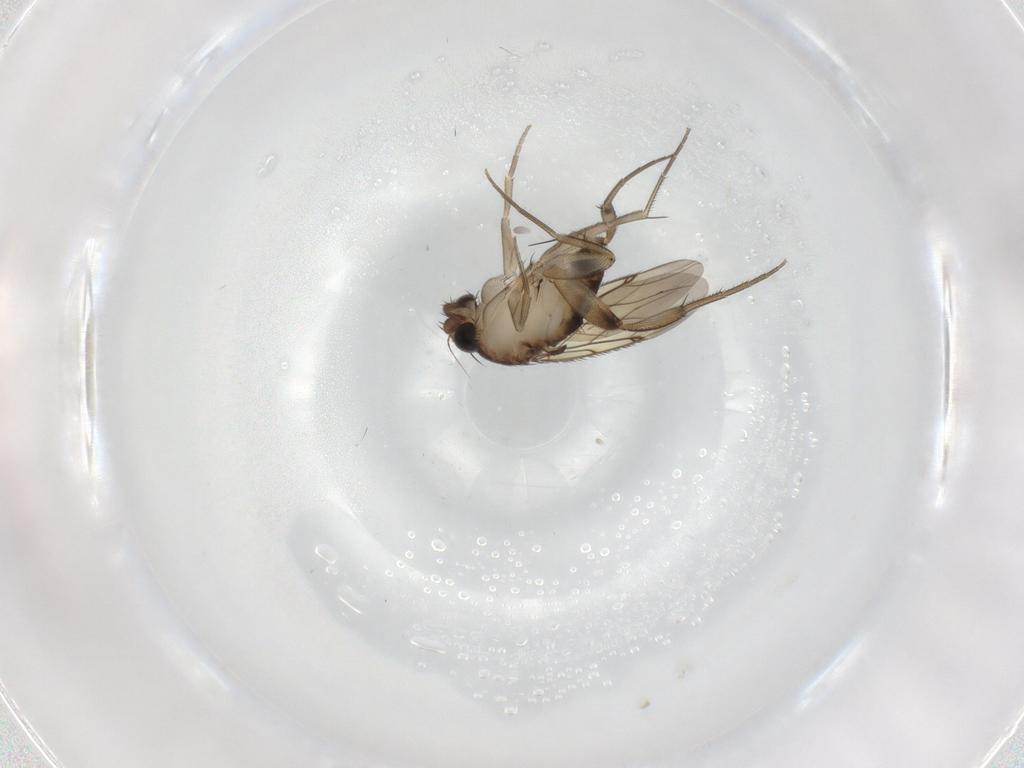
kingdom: Animalia
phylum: Arthropoda
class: Insecta
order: Diptera
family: Phoridae
